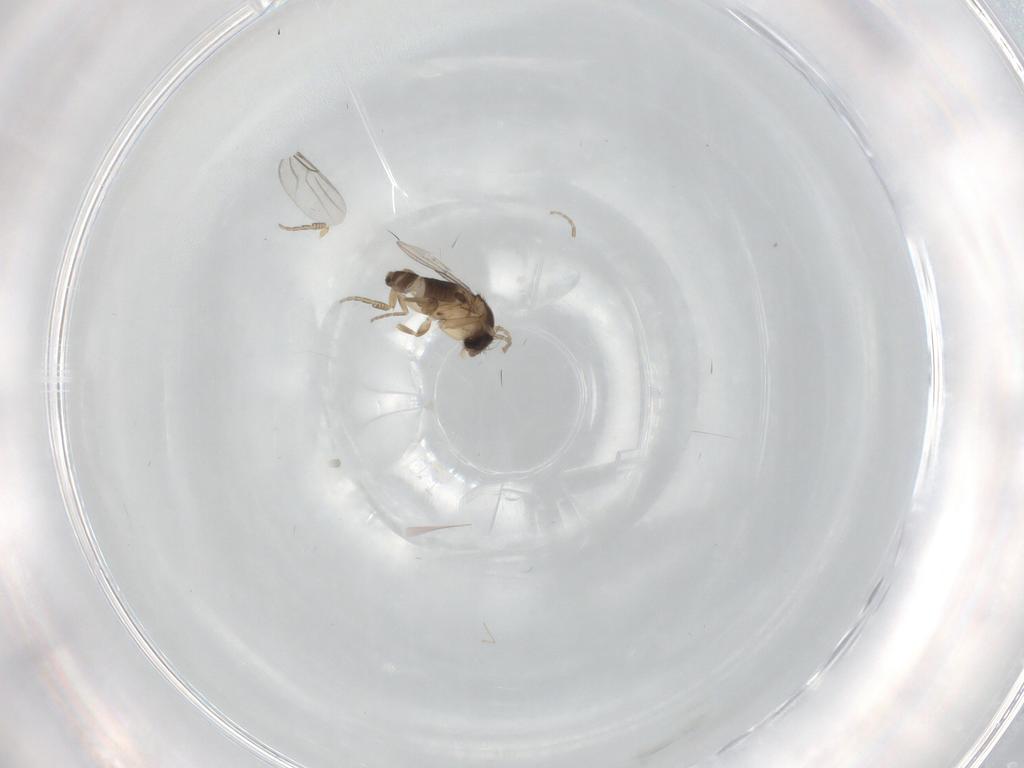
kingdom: Animalia
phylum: Arthropoda
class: Insecta
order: Diptera
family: Phoridae
